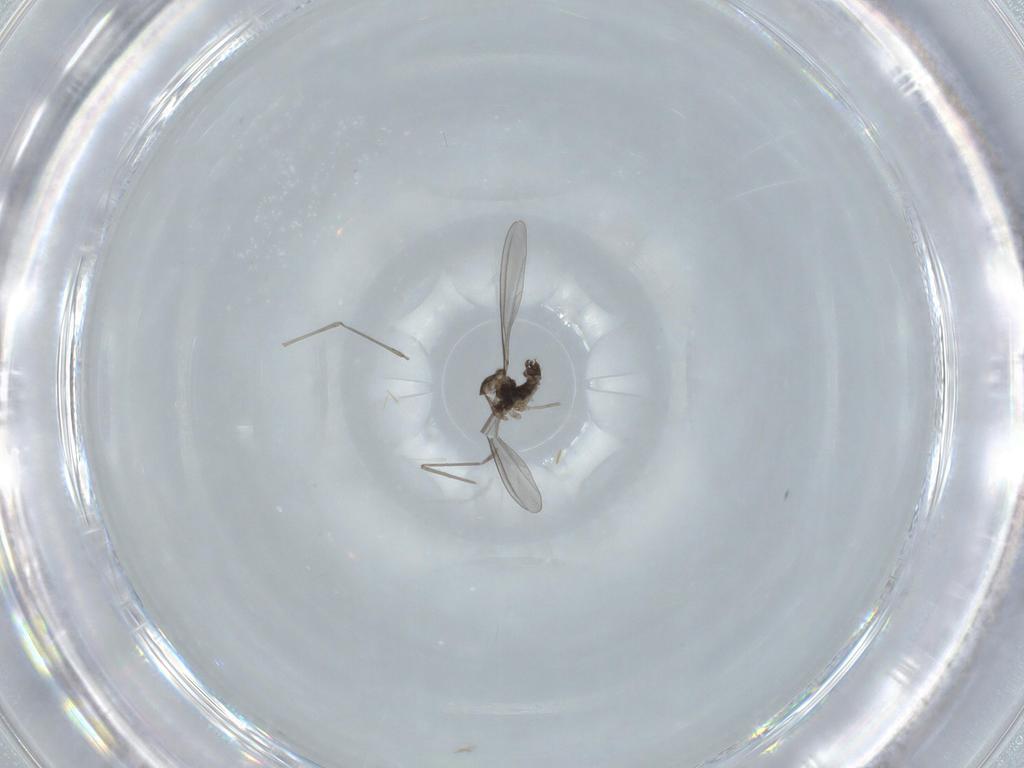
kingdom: Animalia
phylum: Arthropoda
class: Insecta
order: Diptera
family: Cecidomyiidae
